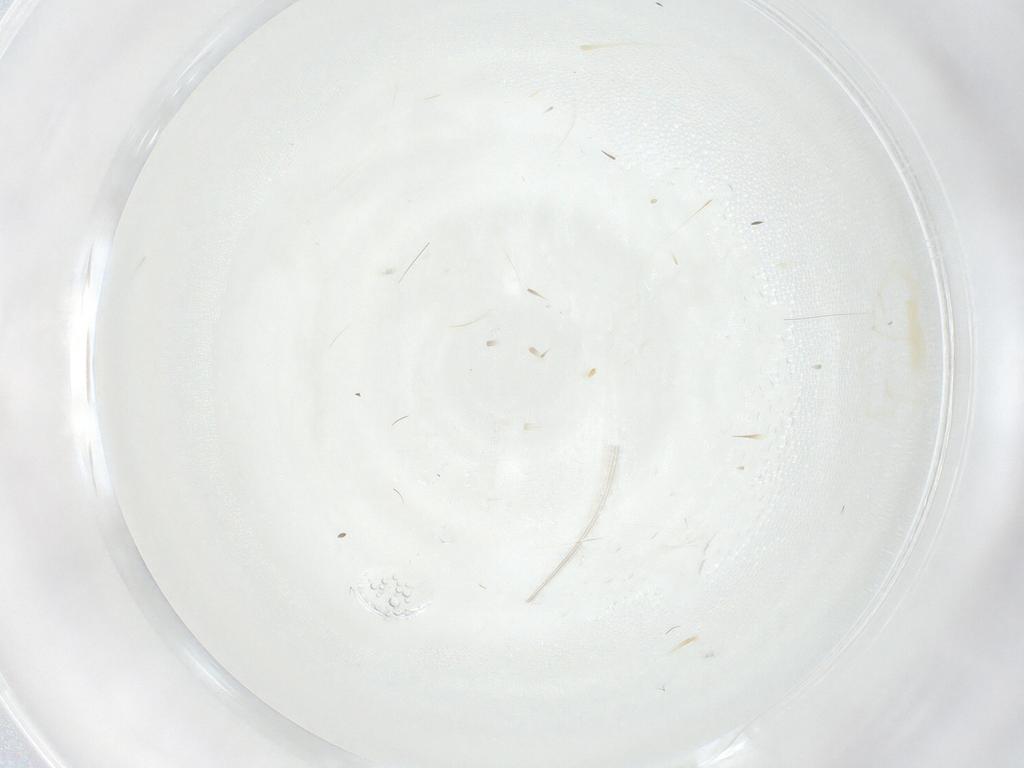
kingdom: Animalia
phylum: Arthropoda
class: Arachnida
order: Trombidiformes
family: Erythraeidae
